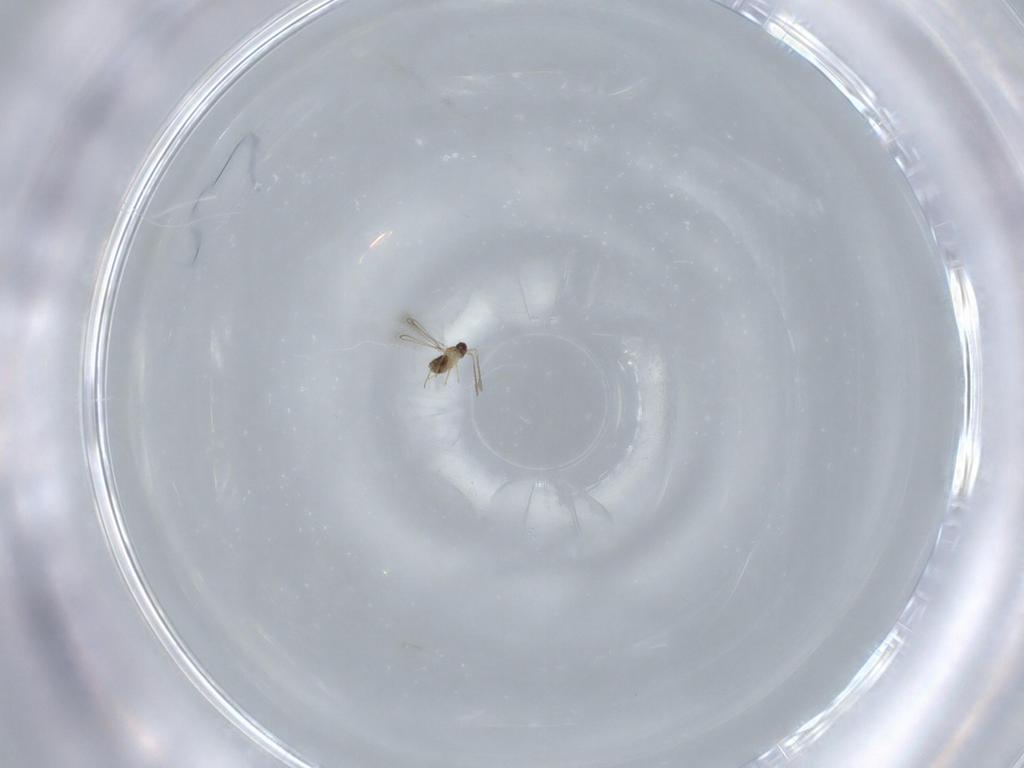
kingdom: Animalia
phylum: Arthropoda
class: Insecta
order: Hymenoptera
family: Mymaridae
